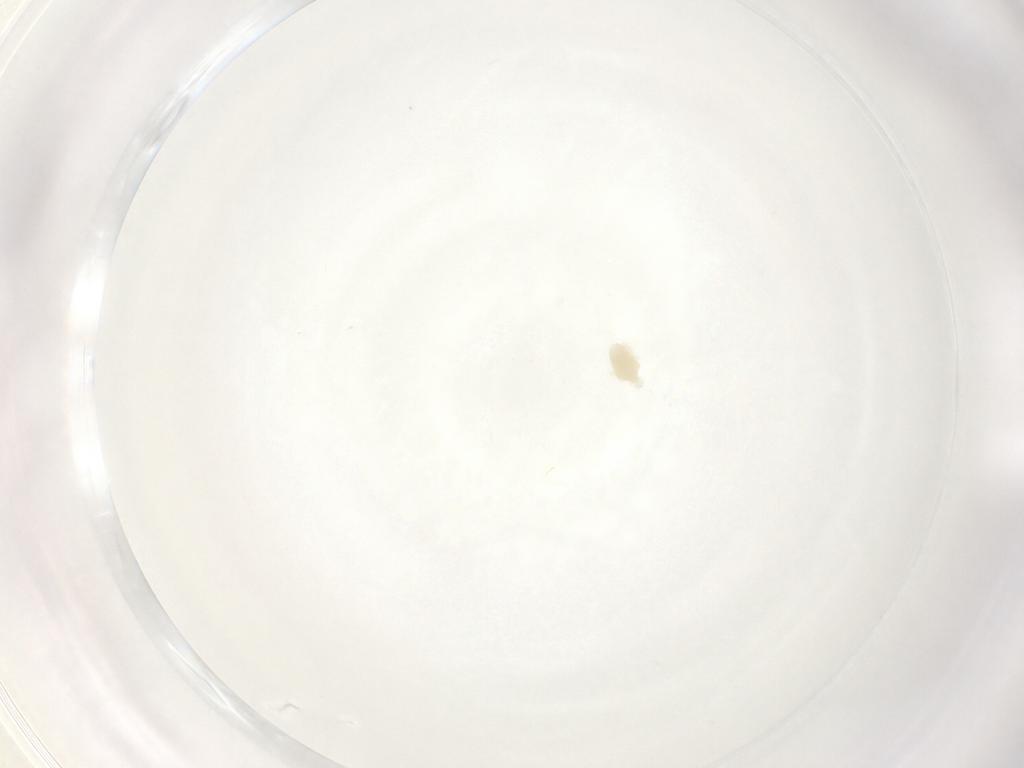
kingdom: Animalia
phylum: Arthropoda
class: Arachnida
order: Trombidiformes
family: Eupodidae
